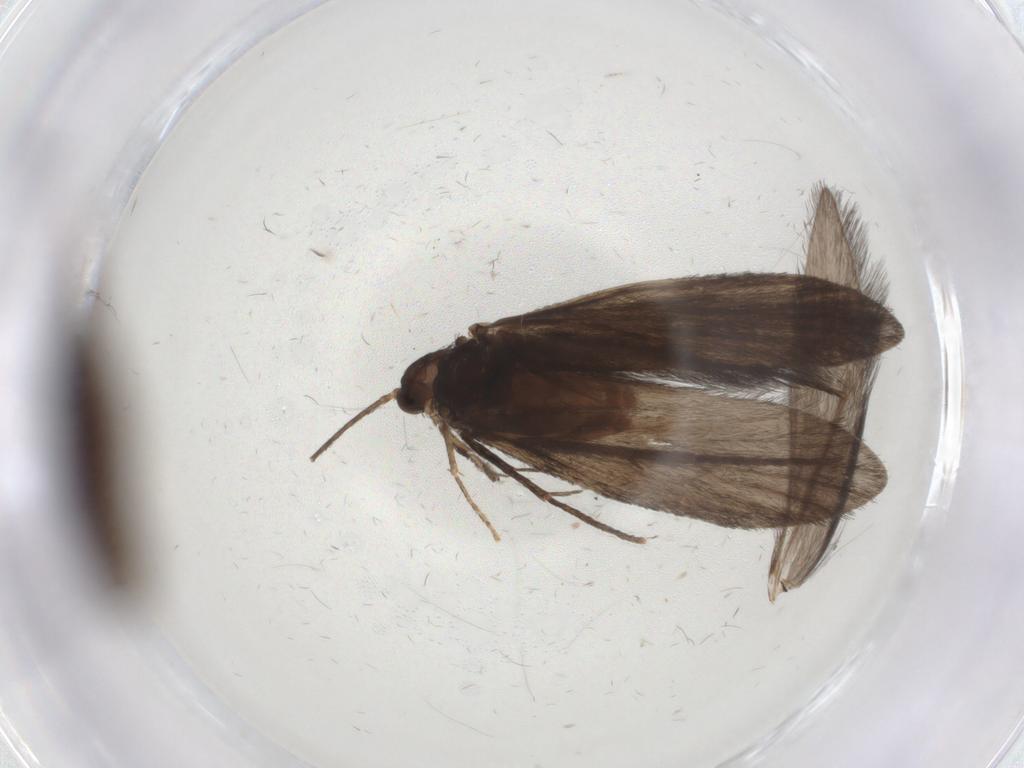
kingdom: Animalia
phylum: Arthropoda
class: Insecta
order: Trichoptera
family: Xiphocentronidae
